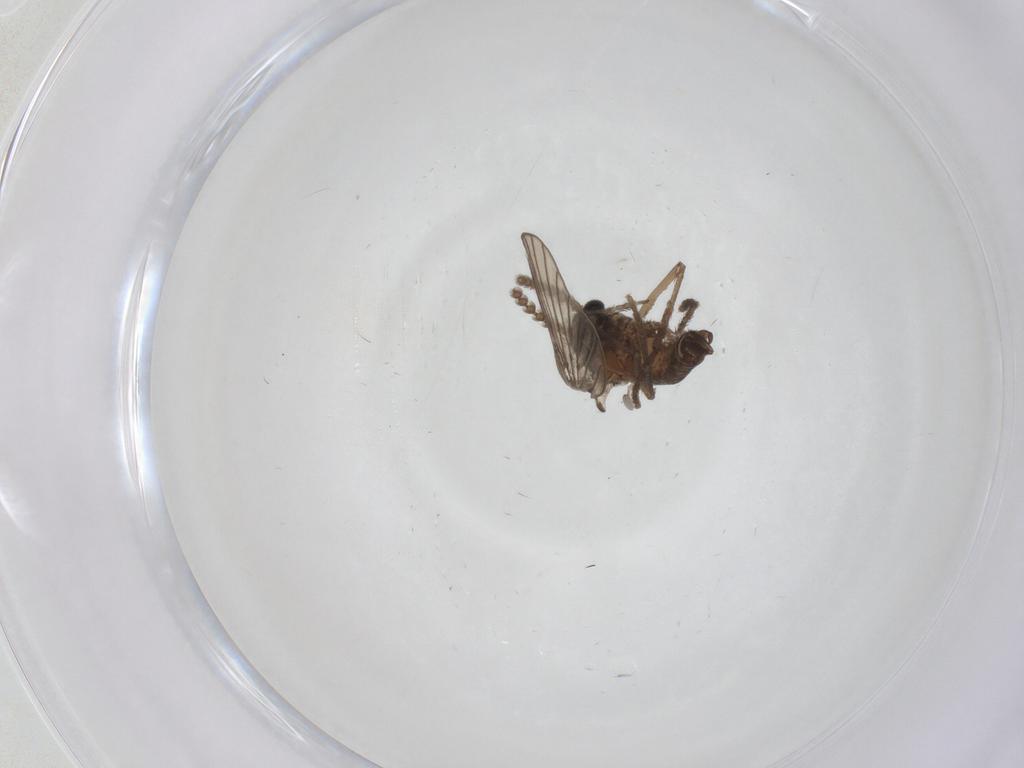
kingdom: Animalia
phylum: Arthropoda
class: Insecta
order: Diptera
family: Psychodidae
